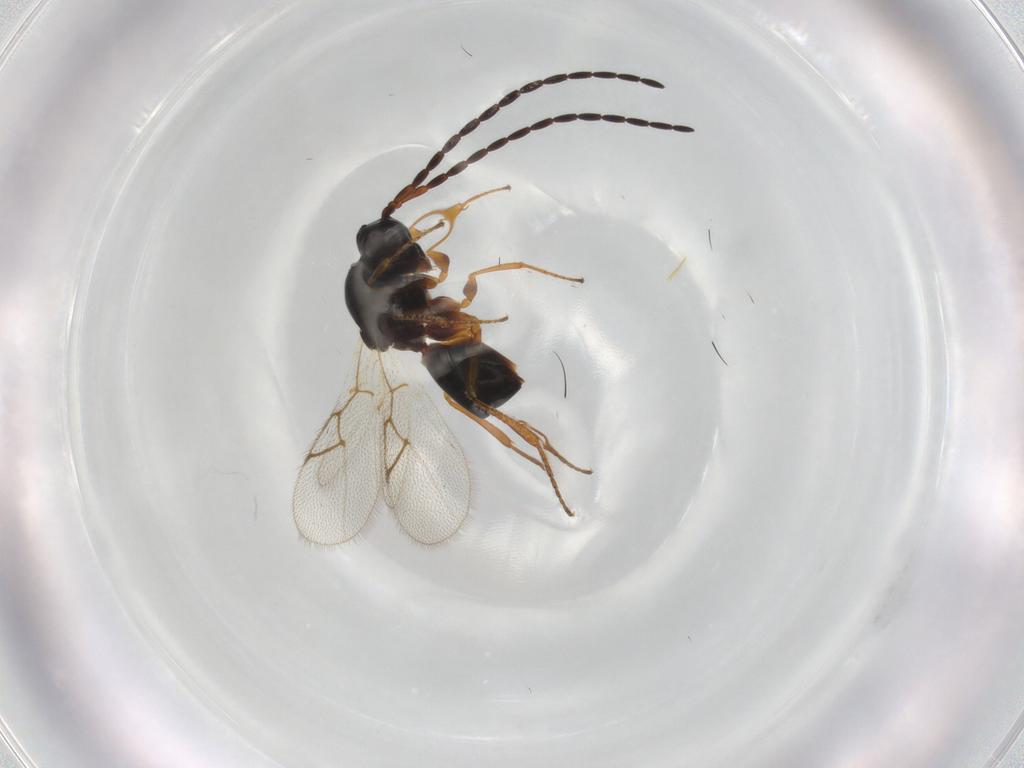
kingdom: Animalia
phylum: Arthropoda
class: Insecta
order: Hymenoptera
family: Figitidae
